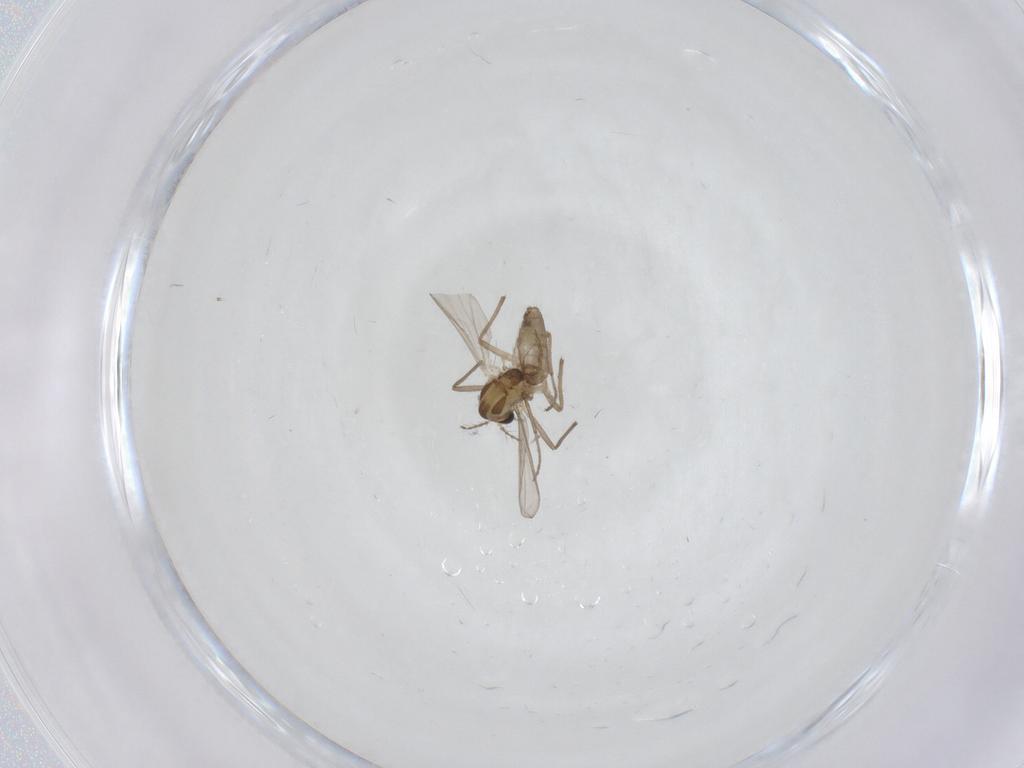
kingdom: Animalia
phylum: Arthropoda
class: Insecta
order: Diptera
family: Chironomidae
